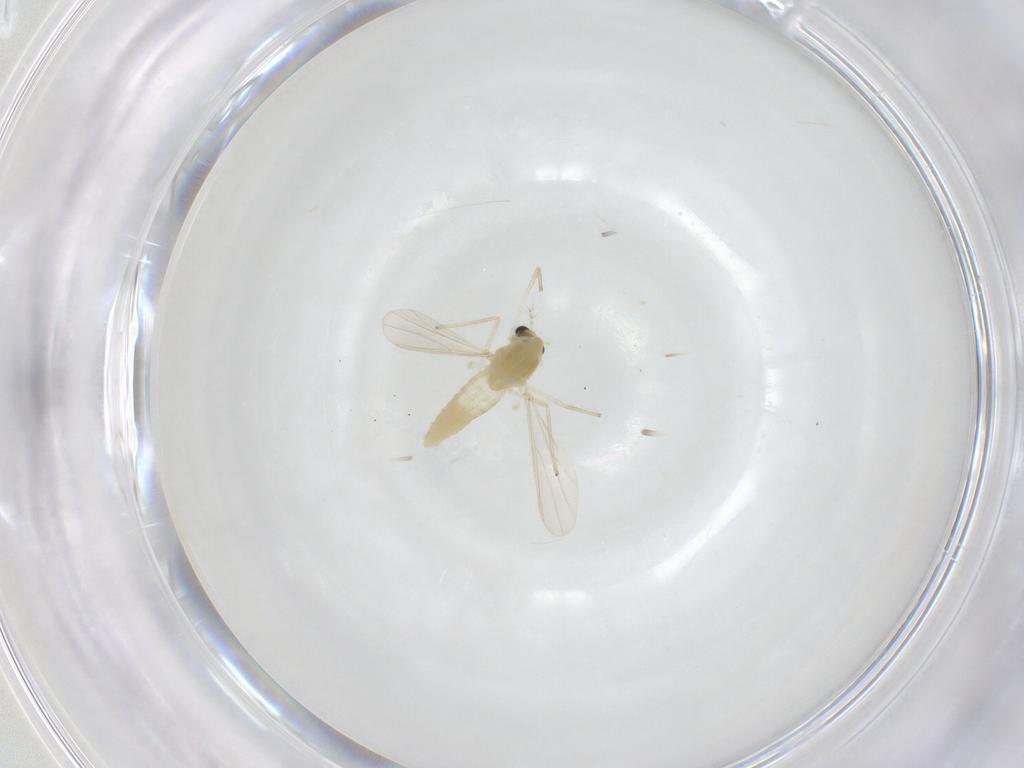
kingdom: Animalia
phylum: Arthropoda
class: Insecta
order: Diptera
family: Chironomidae
